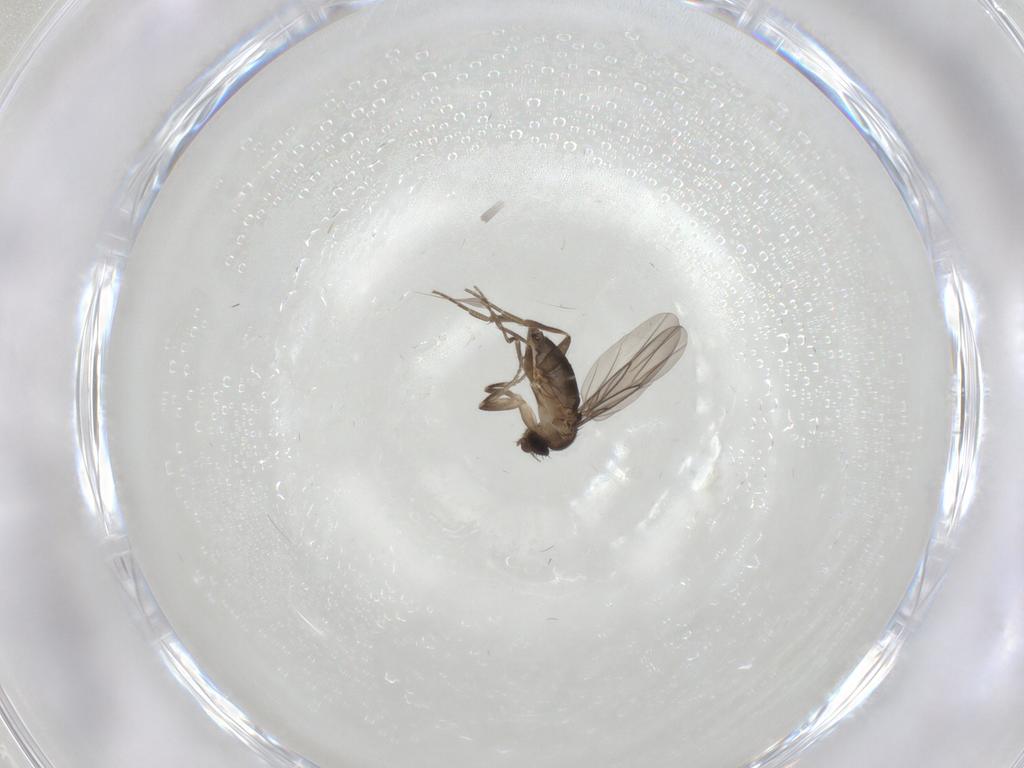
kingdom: Animalia
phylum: Arthropoda
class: Insecta
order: Diptera
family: Phoridae
